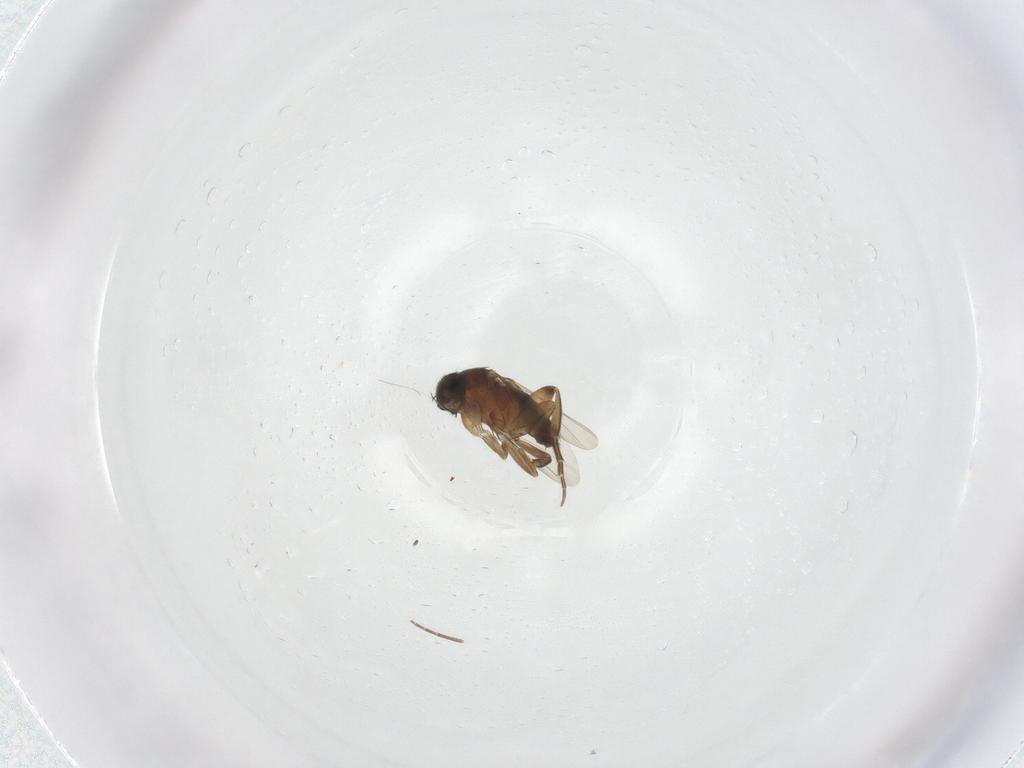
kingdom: Animalia
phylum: Arthropoda
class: Insecta
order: Diptera
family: Phoridae
